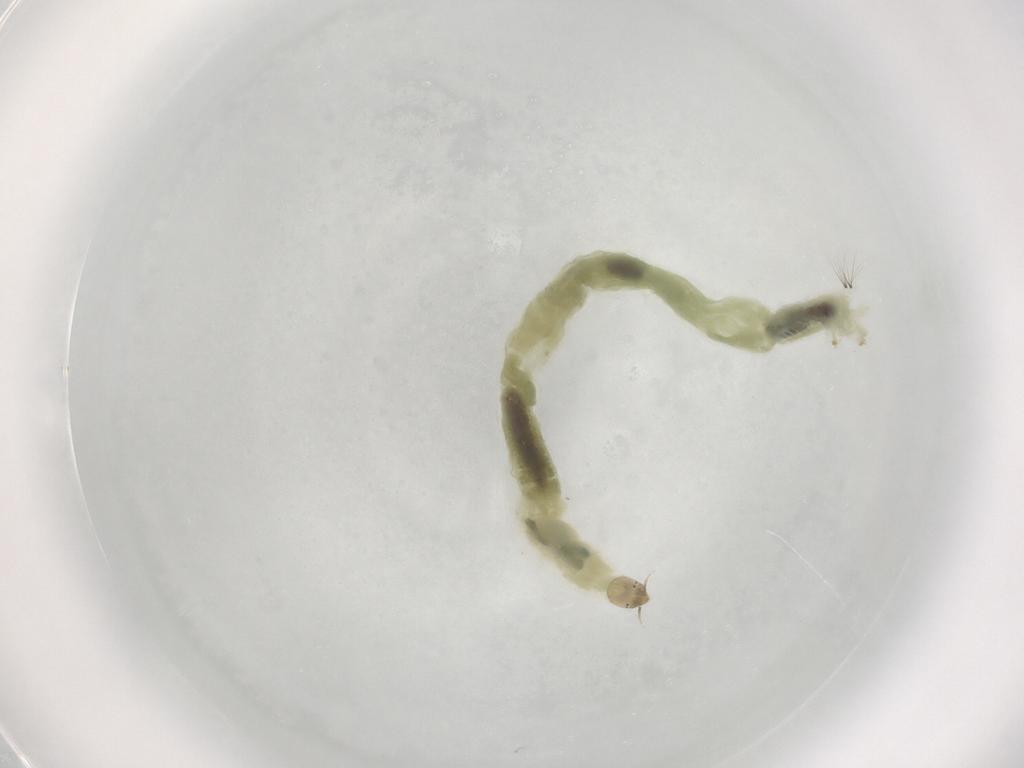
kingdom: Animalia
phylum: Arthropoda
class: Insecta
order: Diptera
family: Chironomidae
